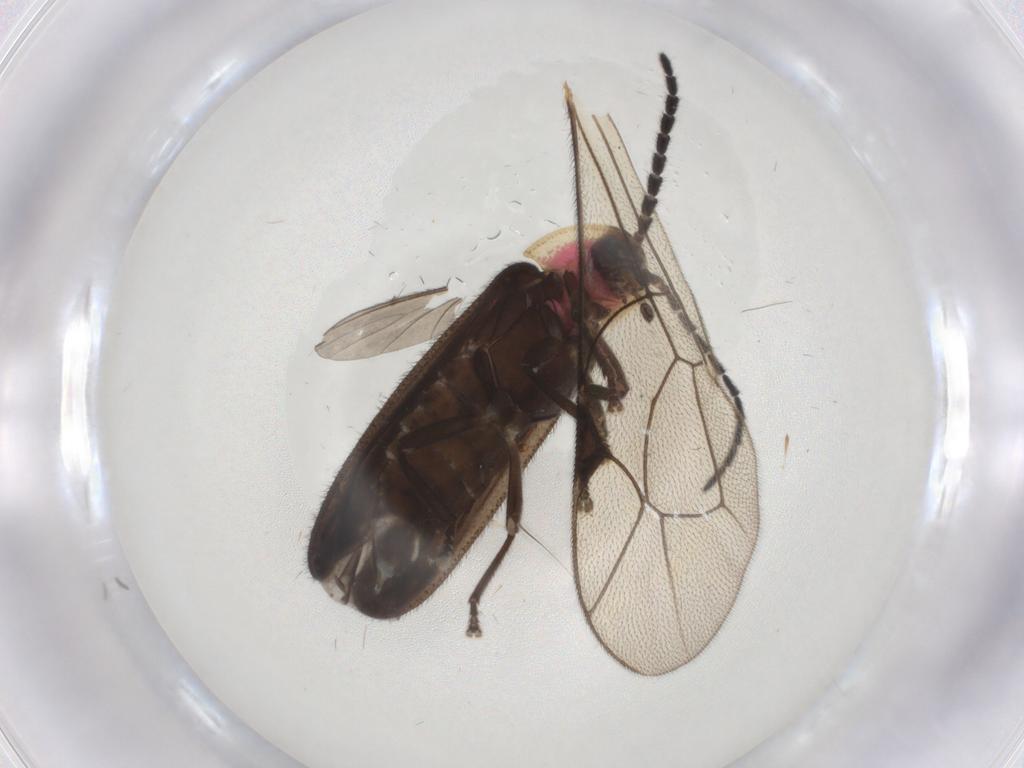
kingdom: Animalia
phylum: Arthropoda
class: Insecta
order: Coleoptera
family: Lampyridae
